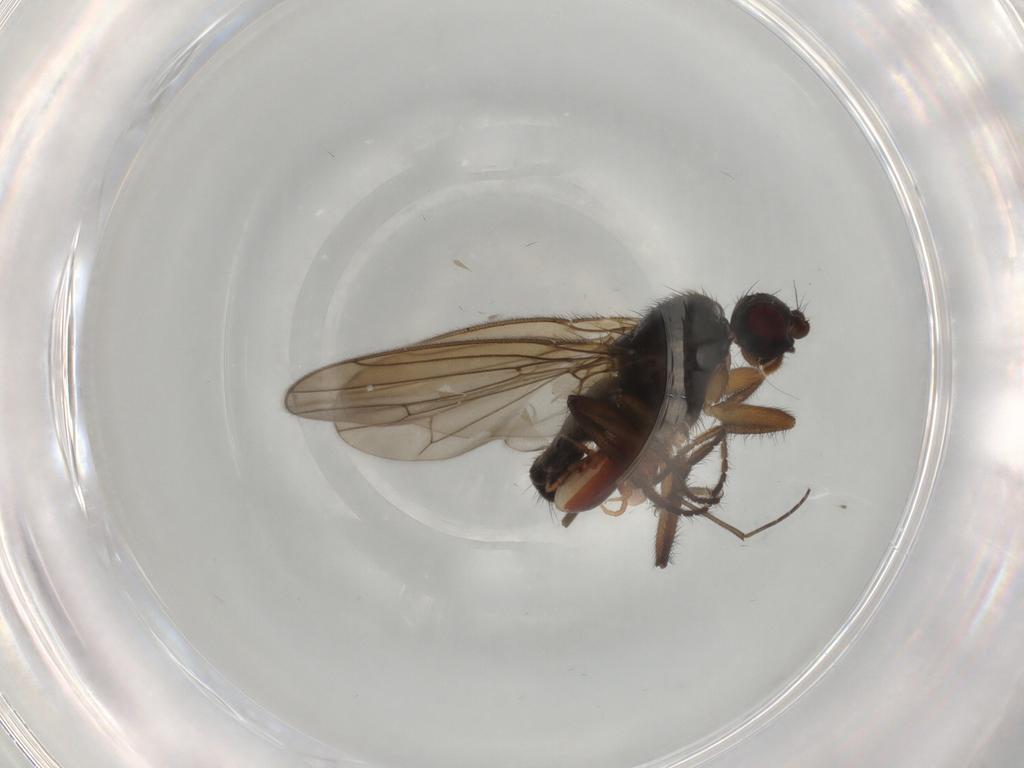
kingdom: Animalia
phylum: Arthropoda
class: Insecta
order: Diptera
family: Sphaeroceridae
